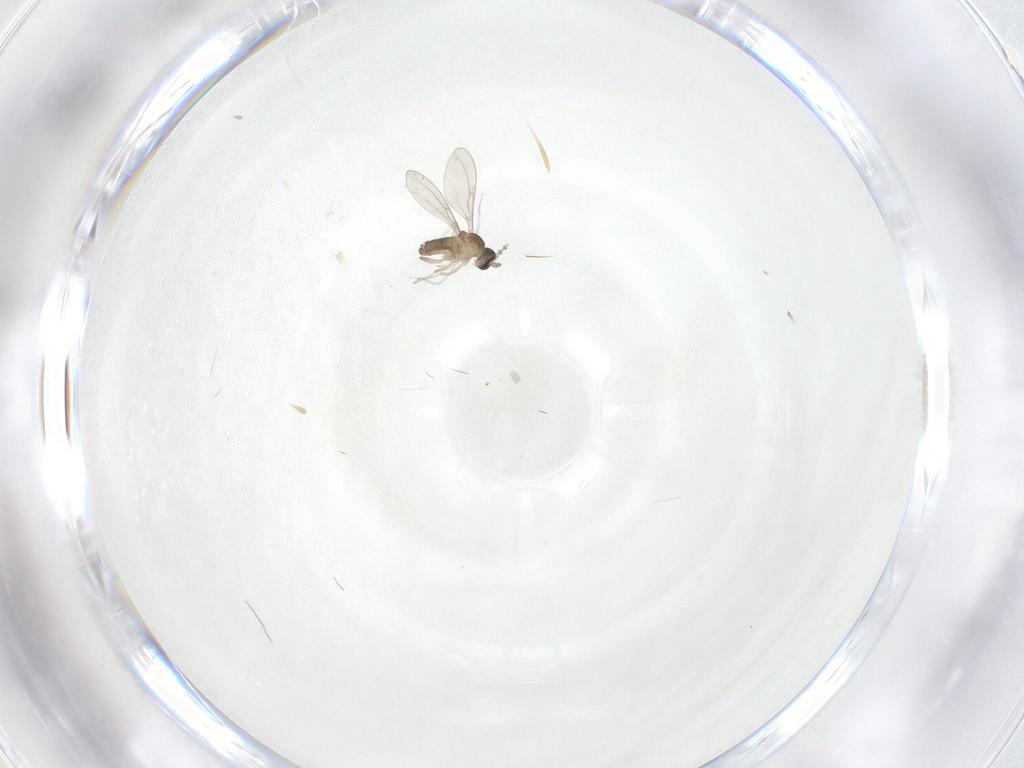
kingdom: Animalia
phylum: Arthropoda
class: Insecta
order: Diptera
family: Cecidomyiidae
